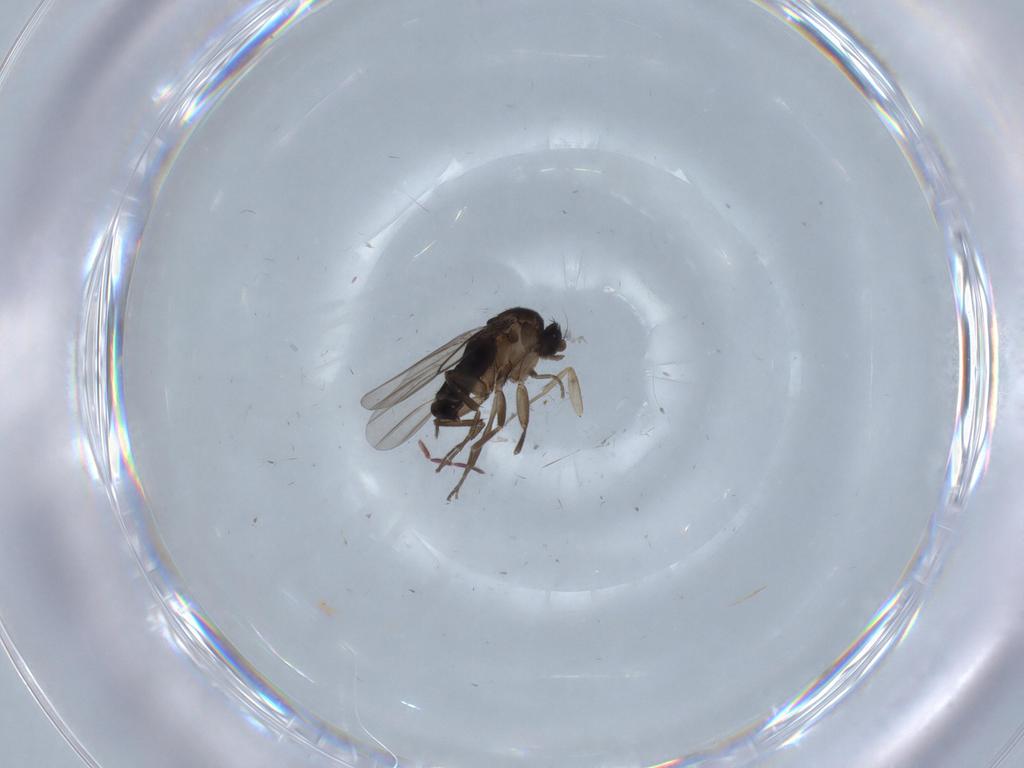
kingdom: Animalia
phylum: Arthropoda
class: Insecta
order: Diptera
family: Phoridae
